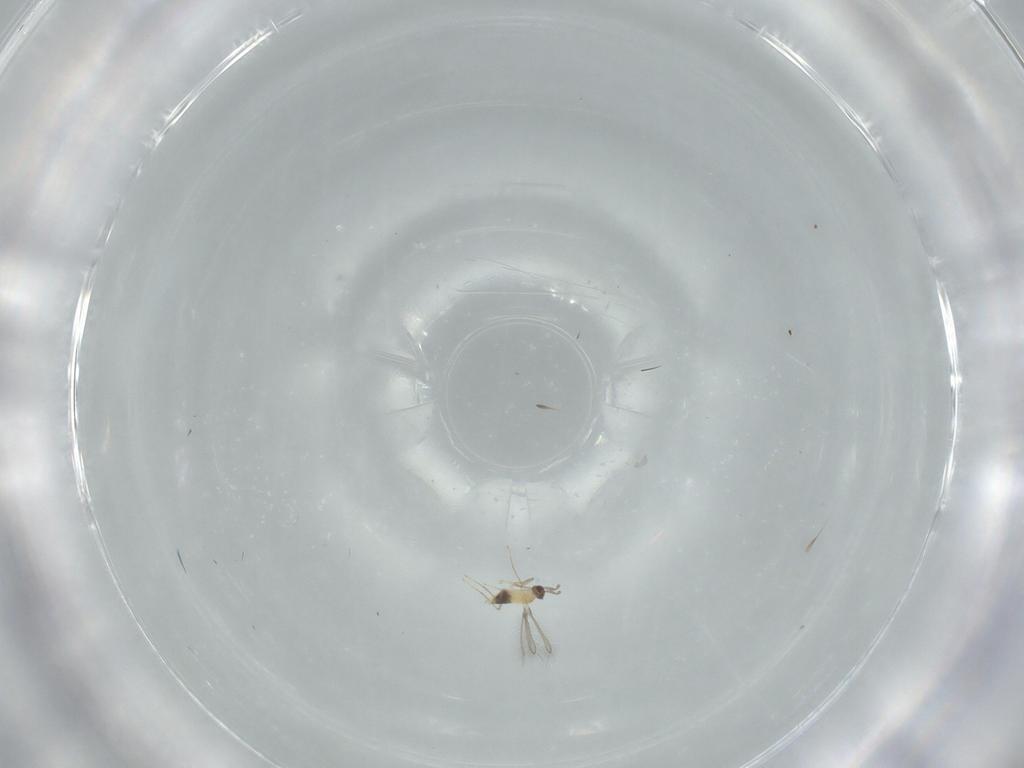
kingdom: Animalia
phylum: Arthropoda
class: Insecta
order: Hymenoptera
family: Mymaridae
